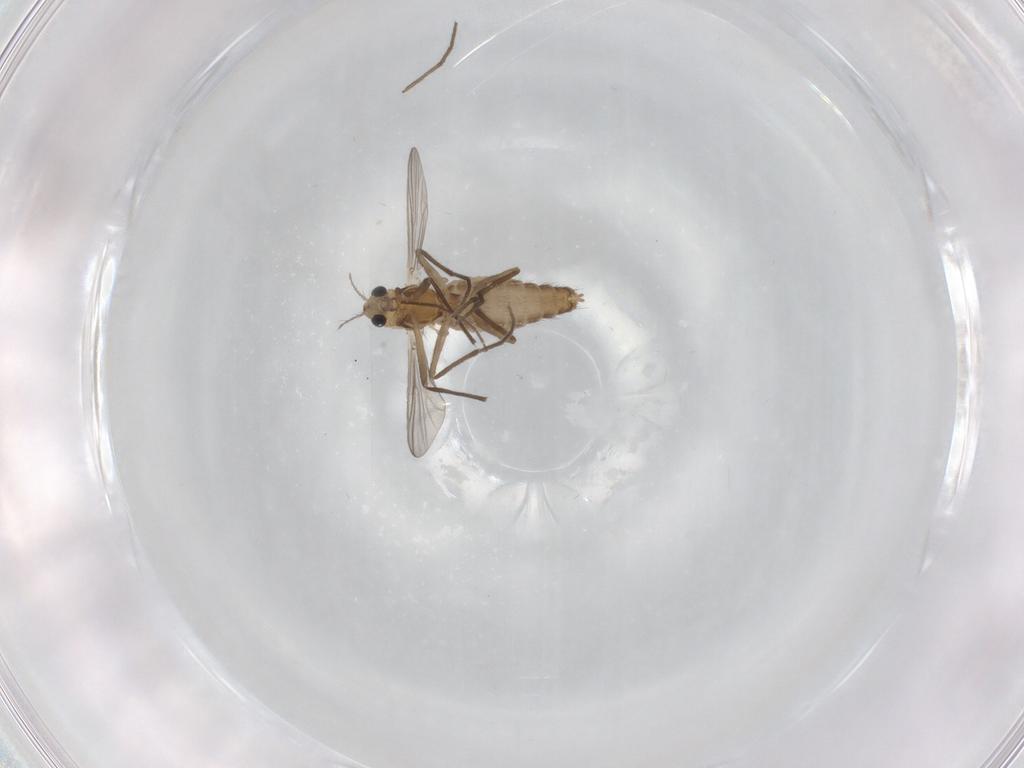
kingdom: Animalia
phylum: Arthropoda
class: Insecta
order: Diptera
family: Ceratopogonidae
